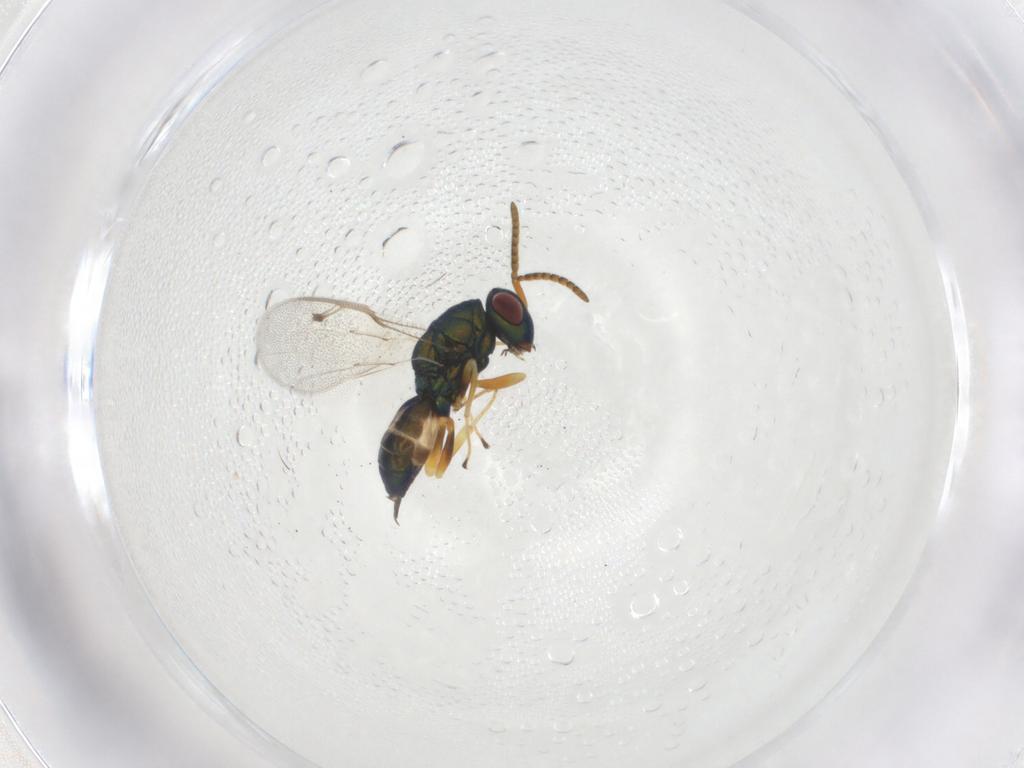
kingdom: Animalia
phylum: Arthropoda
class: Insecta
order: Hymenoptera
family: Pteromalidae
